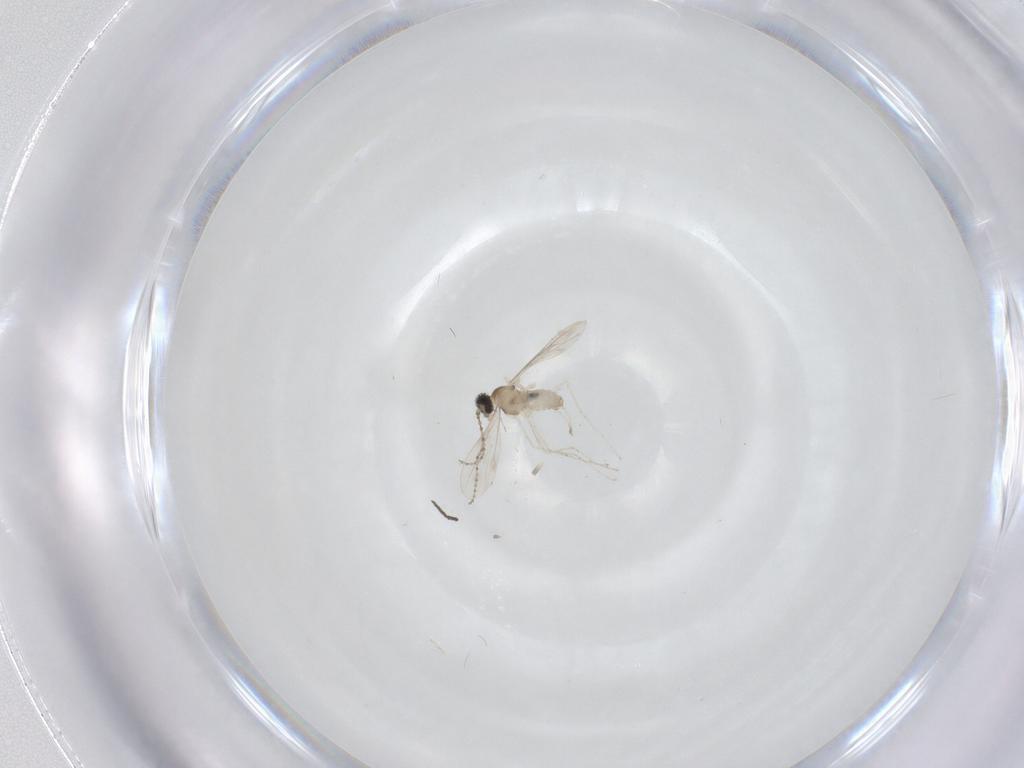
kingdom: Animalia
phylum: Arthropoda
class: Insecta
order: Diptera
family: Cecidomyiidae
